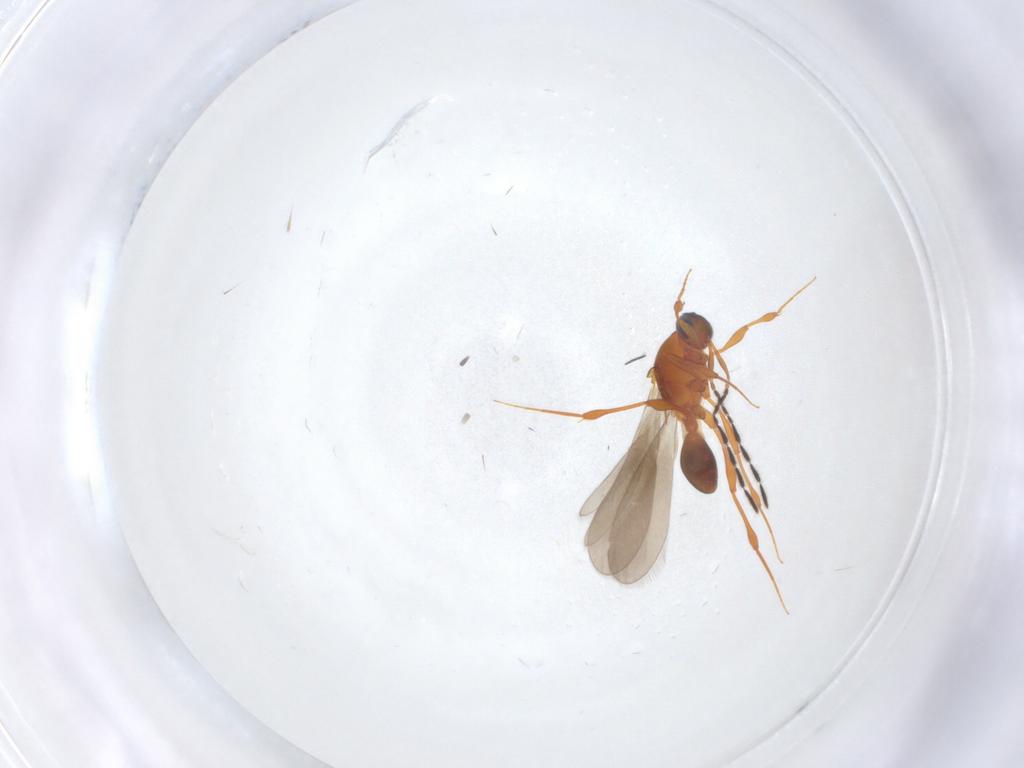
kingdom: Animalia
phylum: Arthropoda
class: Insecta
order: Hymenoptera
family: Platygastridae
